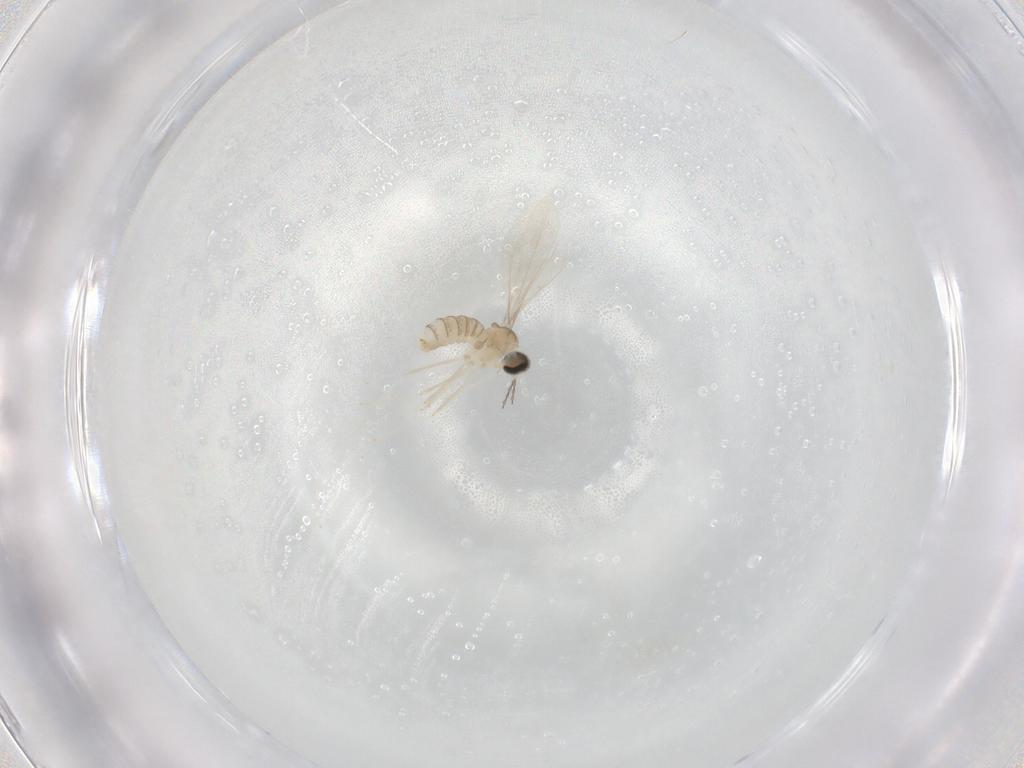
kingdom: Animalia
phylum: Arthropoda
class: Insecta
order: Diptera
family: Cecidomyiidae
